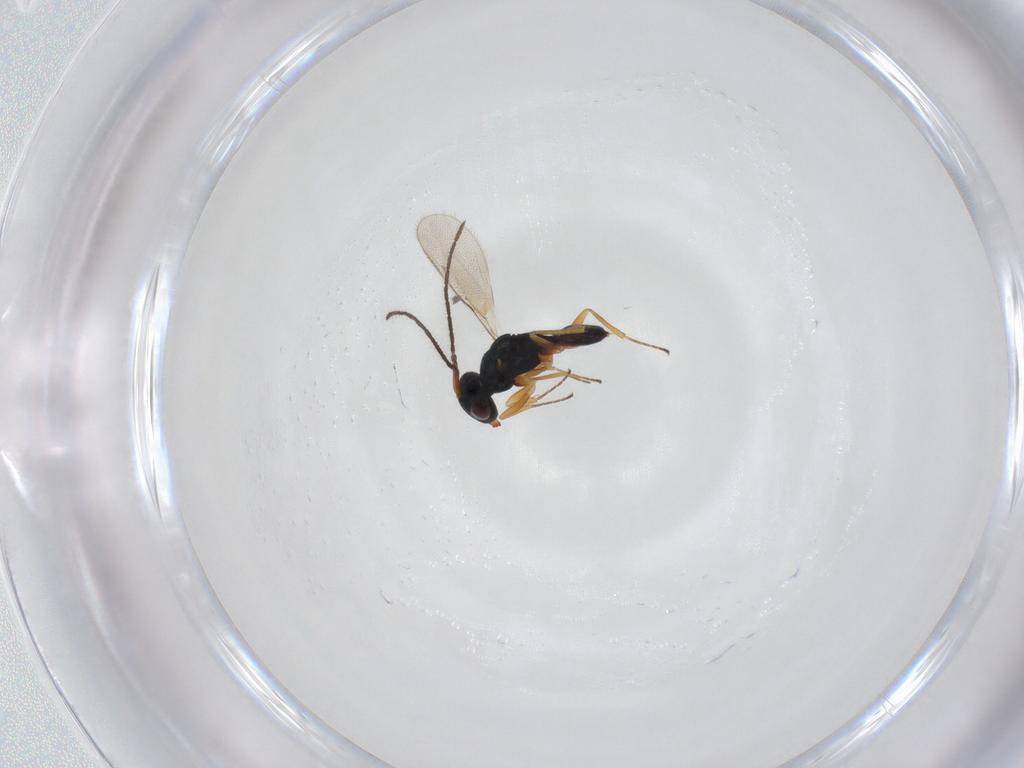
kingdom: Animalia
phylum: Arthropoda
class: Insecta
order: Hymenoptera
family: Pteromalidae
